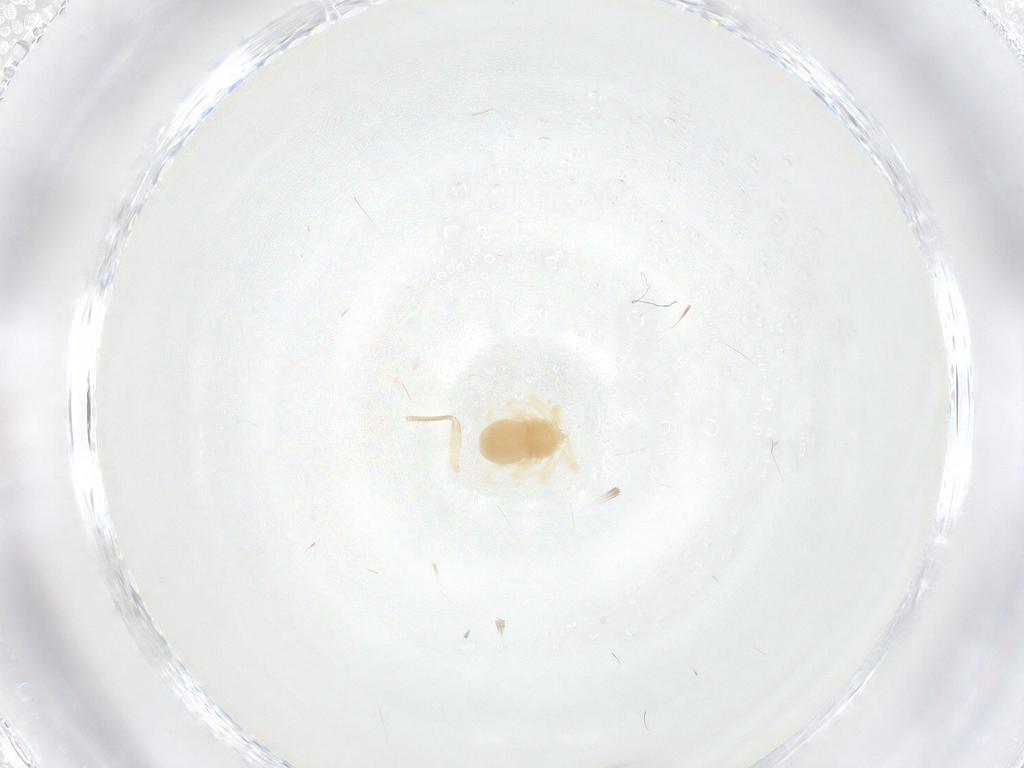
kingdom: Animalia
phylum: Arthropoda
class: Arachnida
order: Trombidiformes
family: Anystidae
